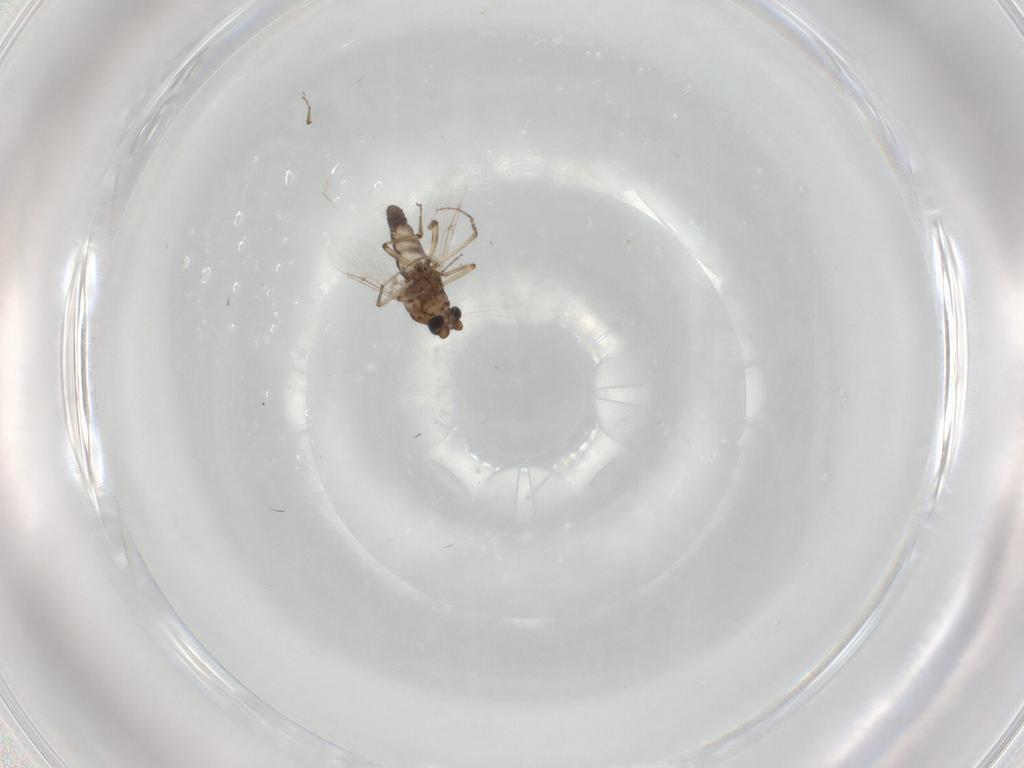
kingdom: Animalia
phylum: Arthropoda
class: Insecta
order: Diptera
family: Ceratopogonidae
